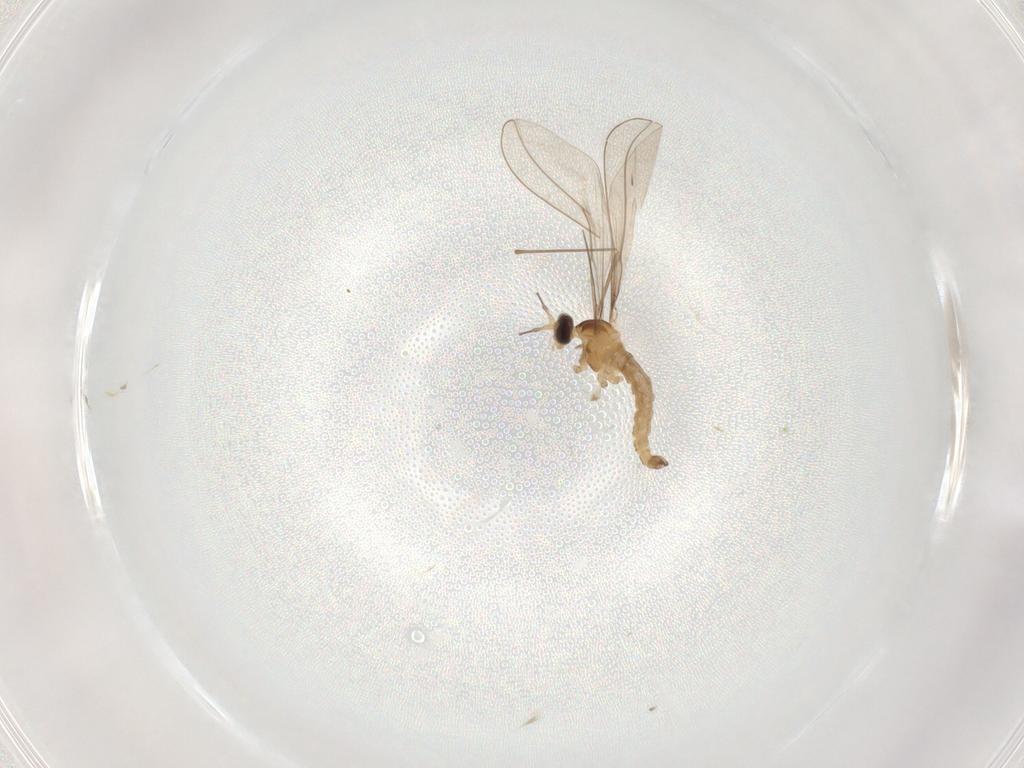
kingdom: Animalia
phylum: Arthropoda
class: Insecta
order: Diptera
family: Cecidomyiidae
